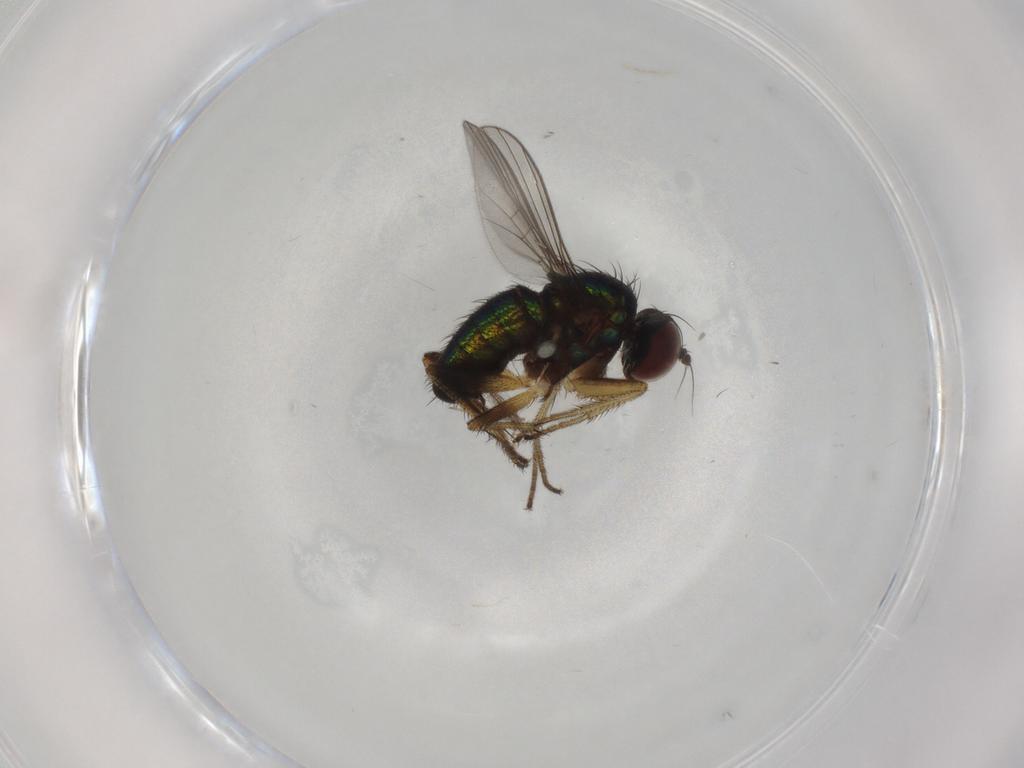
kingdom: Animalia
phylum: Arthropoda
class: Insecta
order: Diptera
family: Dolichopodidae
